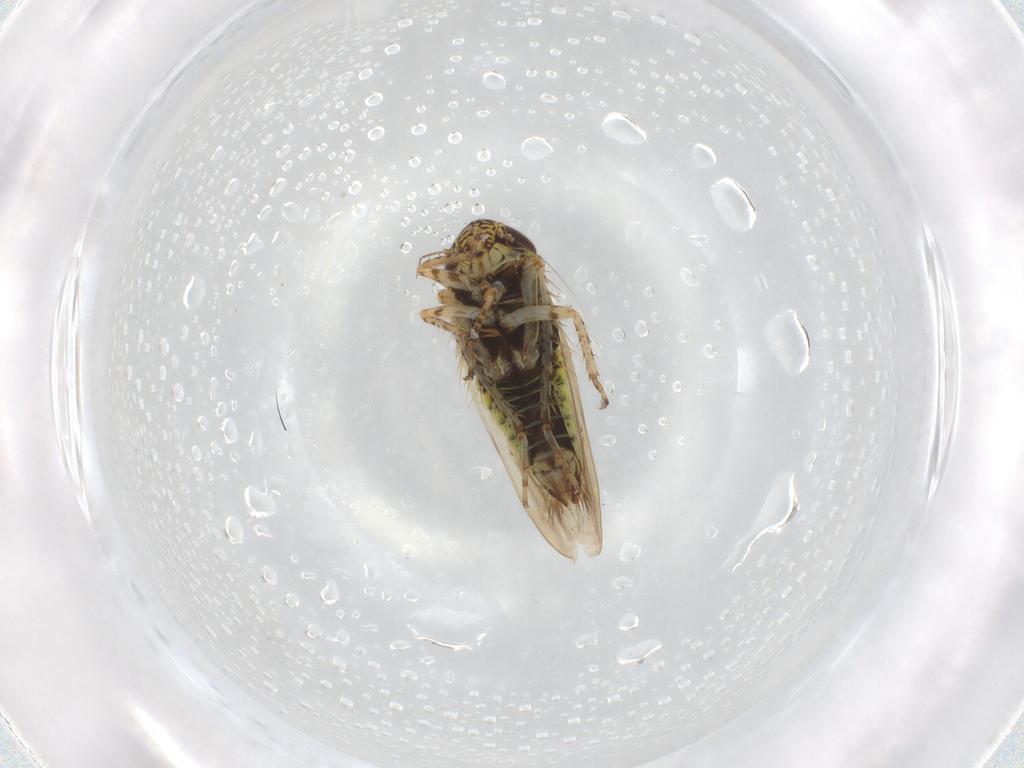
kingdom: Animalia
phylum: Arthropoda
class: Insecta
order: Hemiptera
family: Cicadellidae
